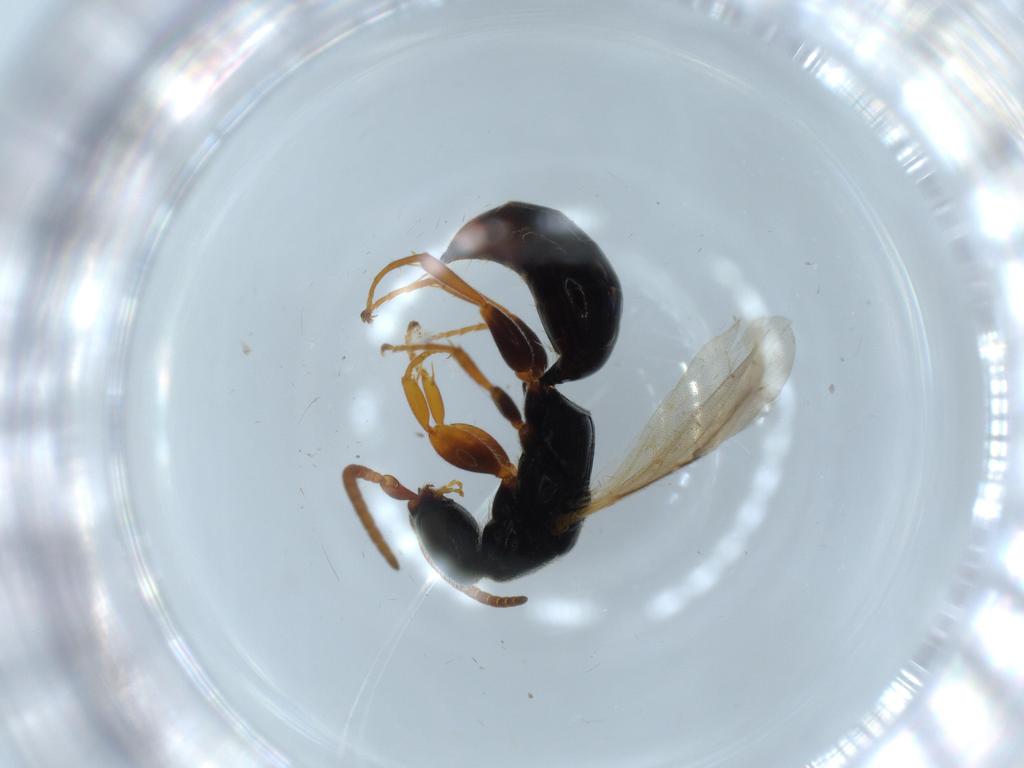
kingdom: Animalia
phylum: Arthropoda
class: Insecta
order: Hymenoptera
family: Bethylidae
